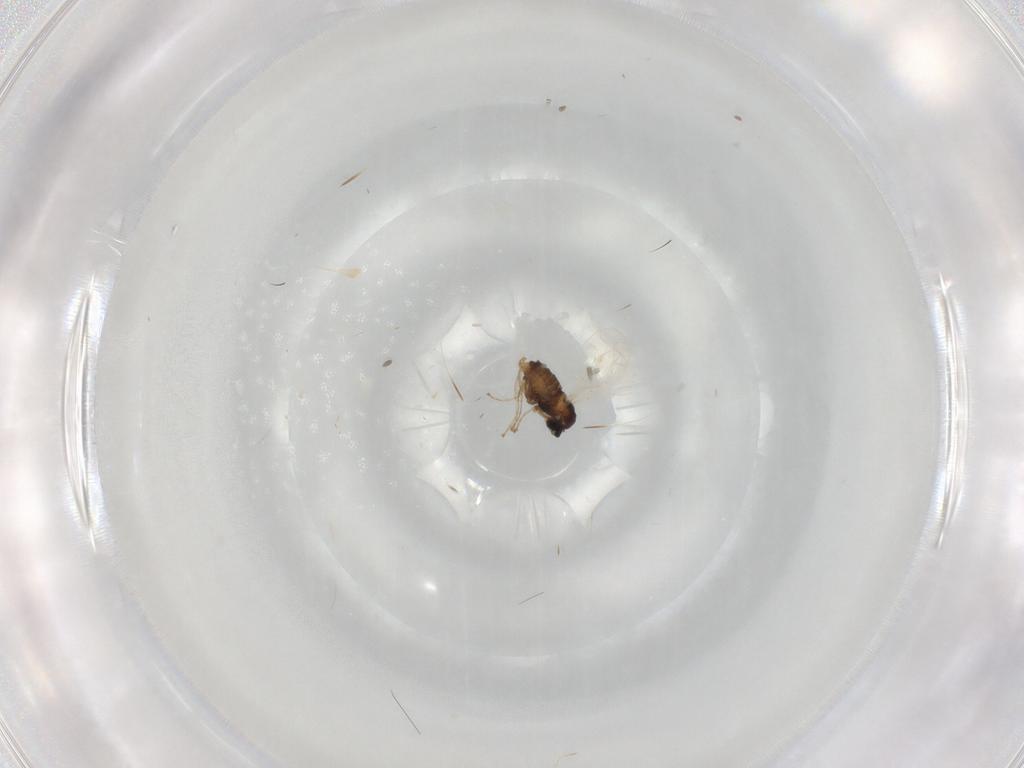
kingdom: Animalia
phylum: Arthropoda
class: Insecta
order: Diptera
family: Cecidomyiidae
